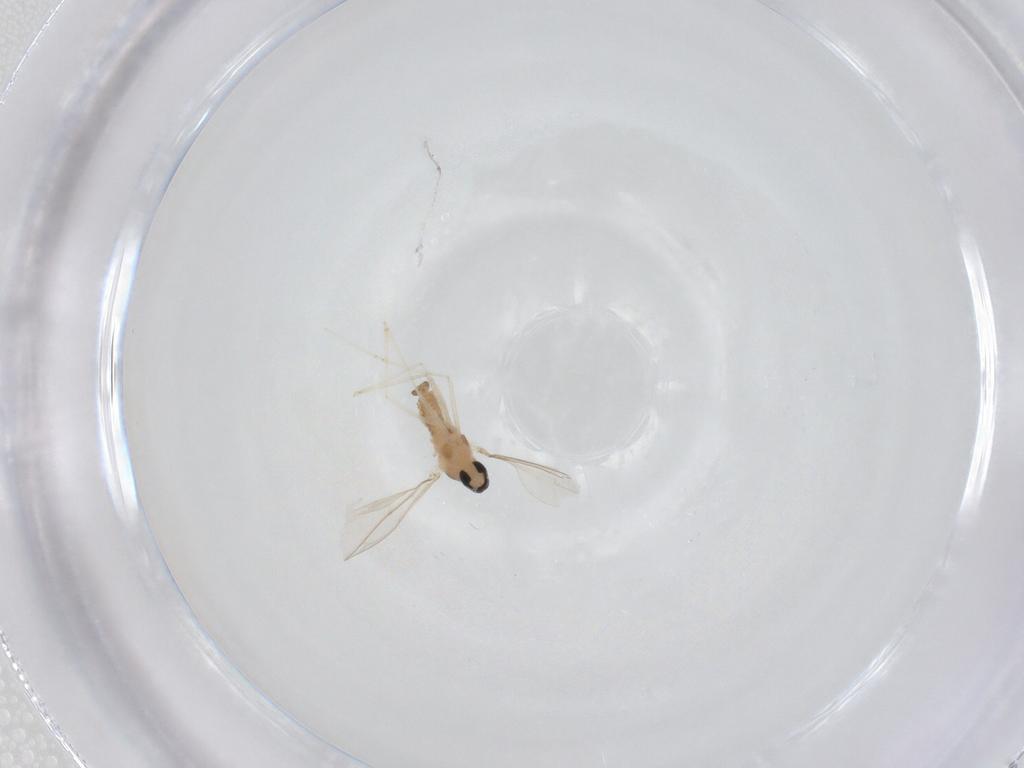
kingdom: Animalia
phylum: Arthropoda
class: Insecta
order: Diptera
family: Cecidomyiidae
